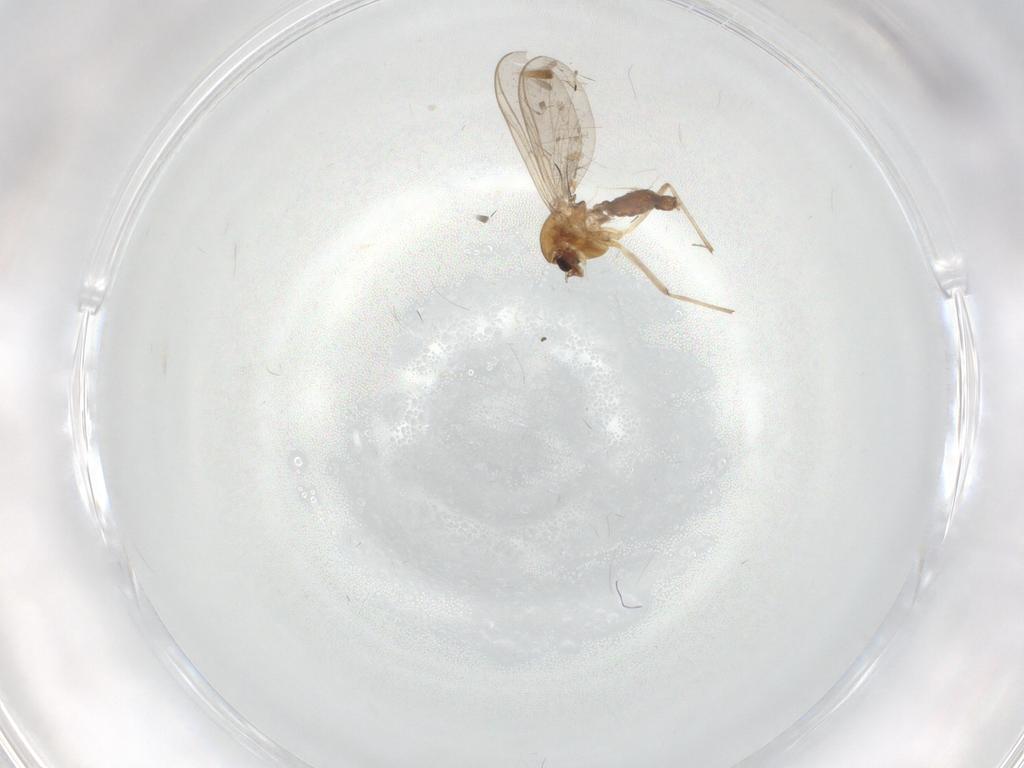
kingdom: Animalia
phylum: Arthropoda
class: Insecta
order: Diptera
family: Chironomidae
